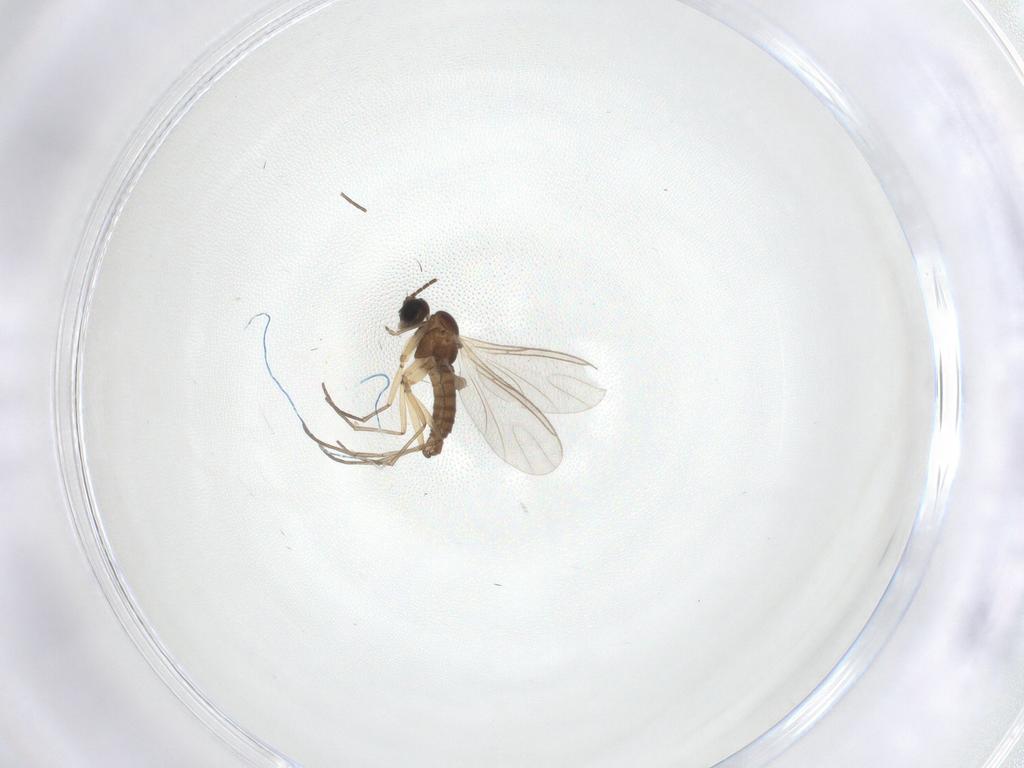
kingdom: Animalia
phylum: Arthropoda
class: Insecta
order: Diptera
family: Sciaridae
